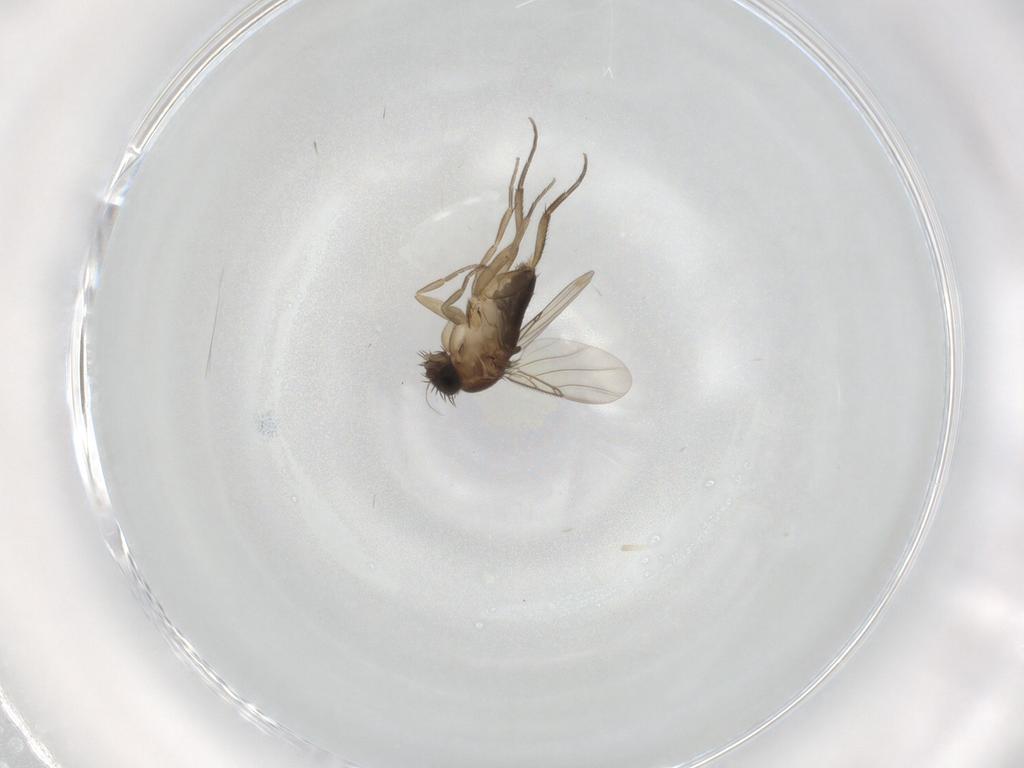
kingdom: Animalia
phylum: Arthropoda
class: Insecta
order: Diptera
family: Phoridae
